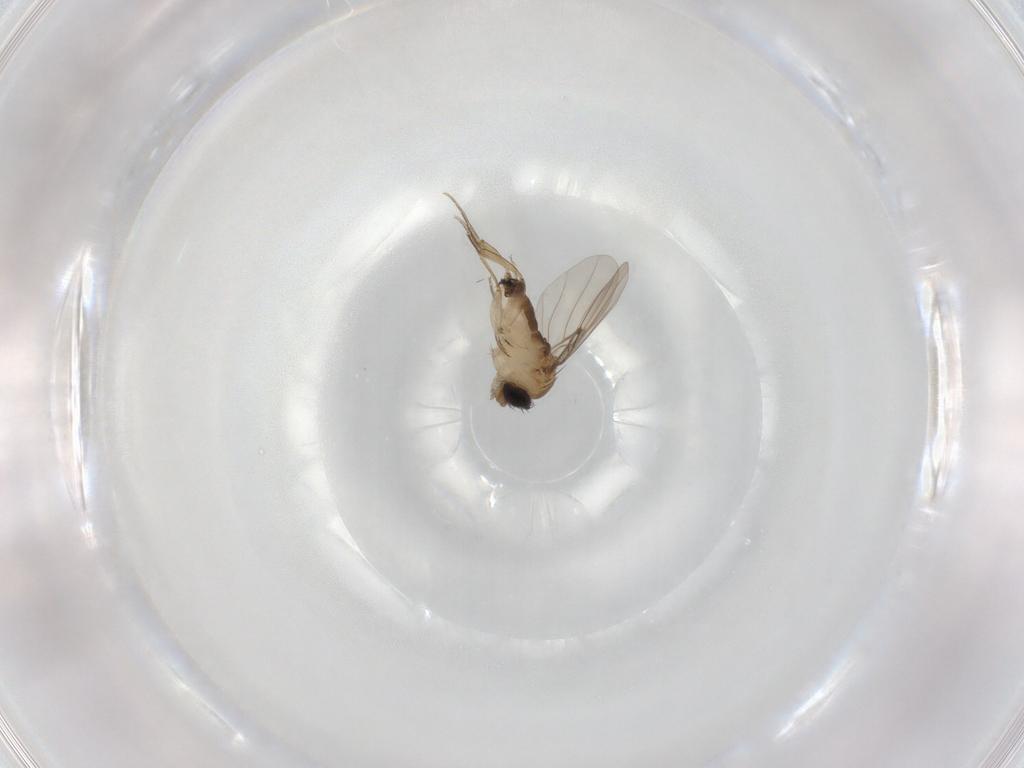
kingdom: Animalia
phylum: Arthropoda
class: Insecta
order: Diptera
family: Phoridae
